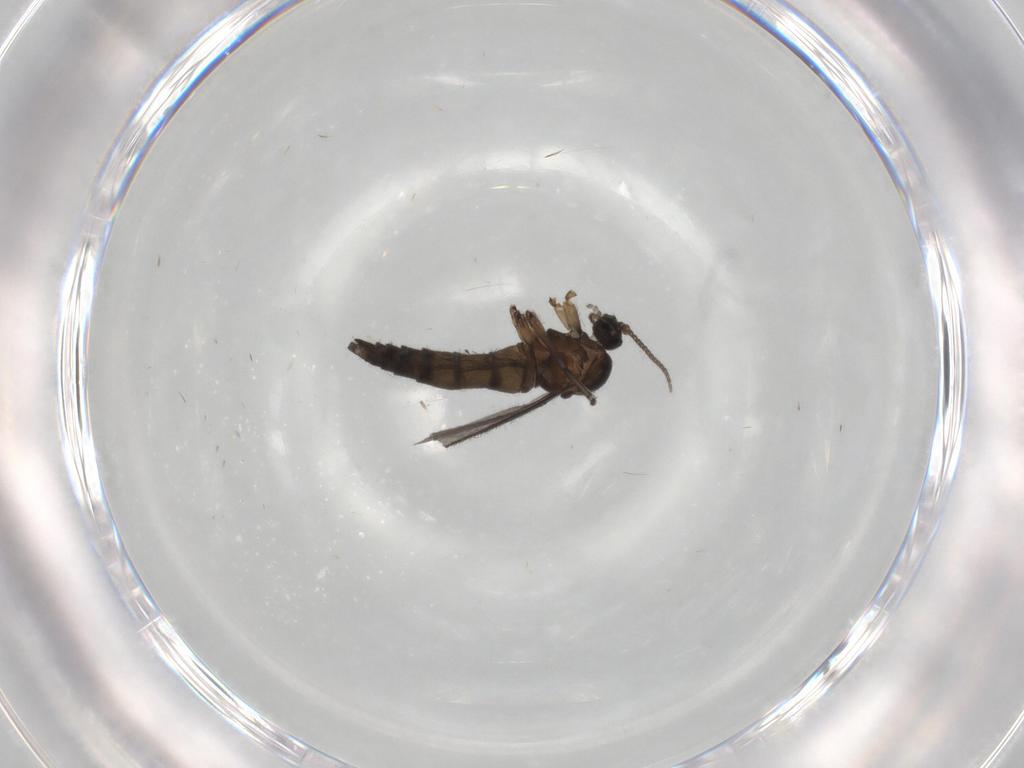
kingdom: Animalia
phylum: Arthropoda
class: Insecta
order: Diptera
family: Sciaridae
